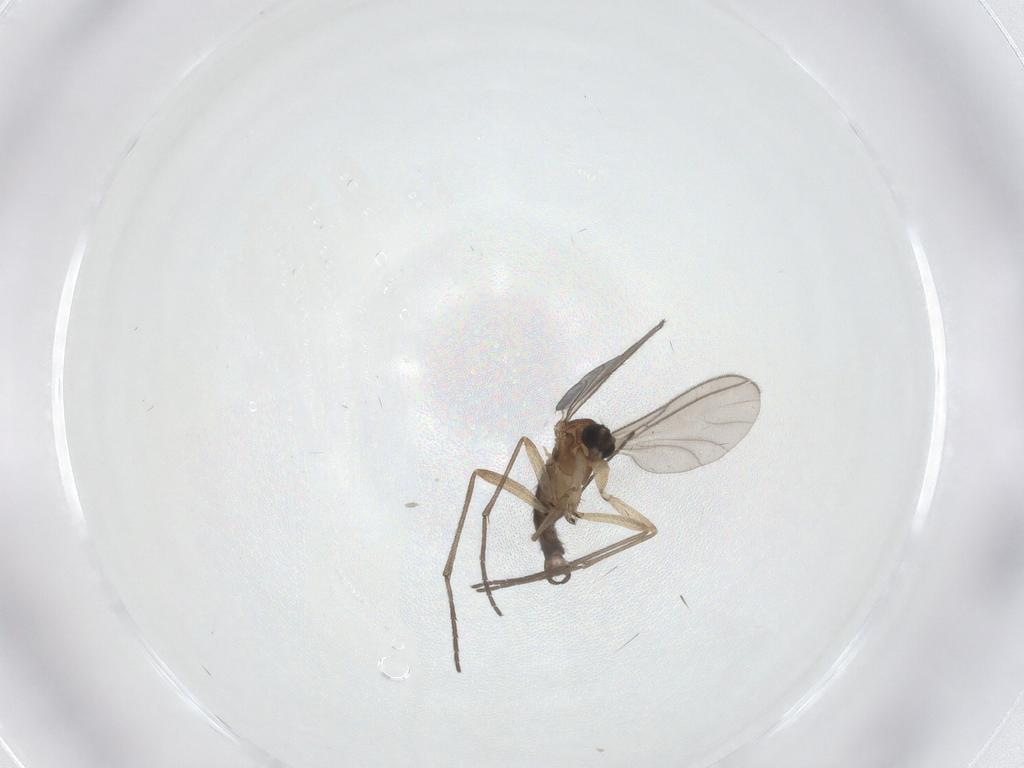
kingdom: Animalia
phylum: Arthropoda
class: Insecta
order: Diptera
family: Sciaridae
